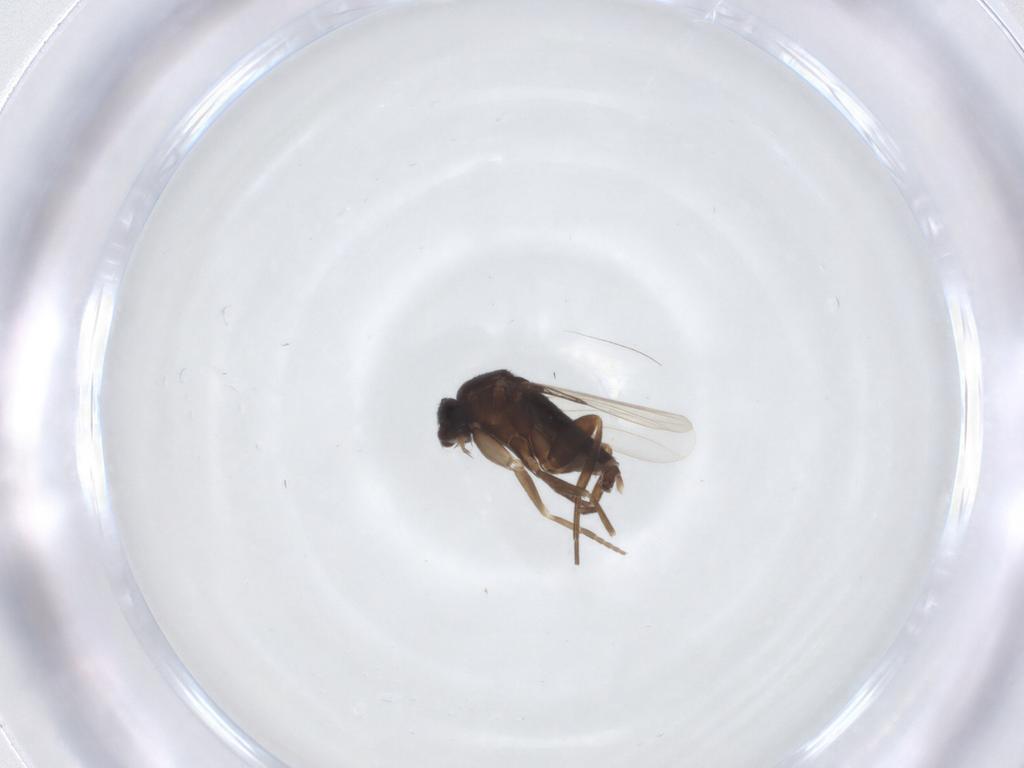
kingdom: Animalia
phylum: Arthropoda
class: Insecta
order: Diptera
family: Phoridae
